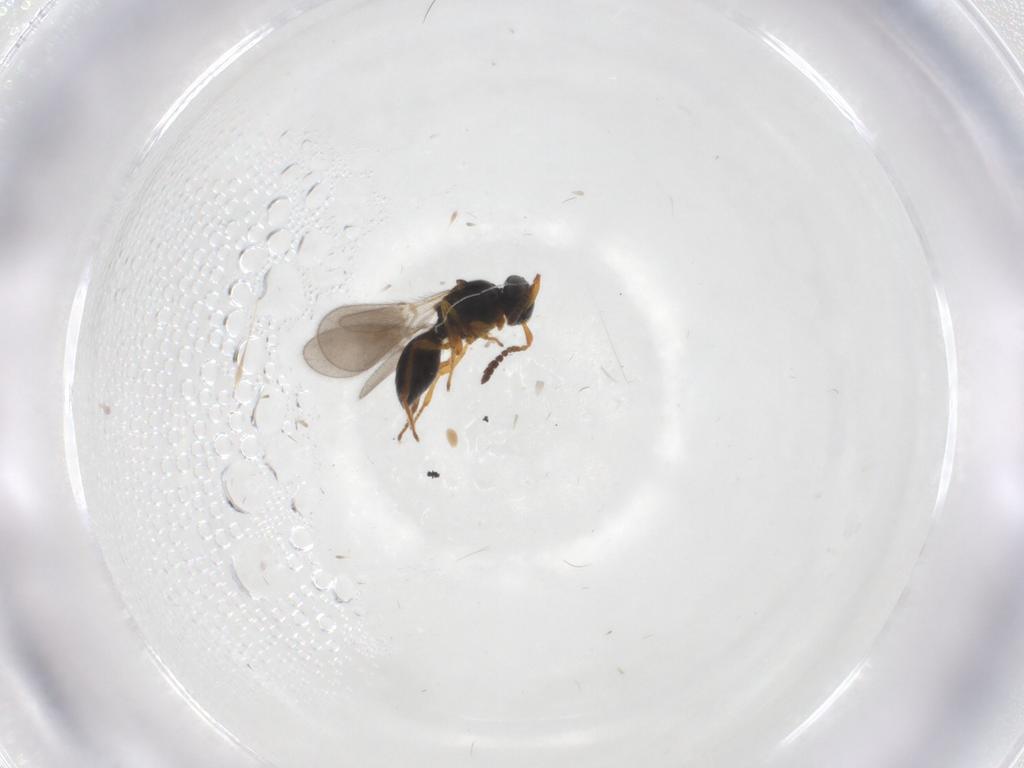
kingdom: Animalia
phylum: Arthropoda
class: Insecta
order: Hymenoptera
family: Platygastridae
